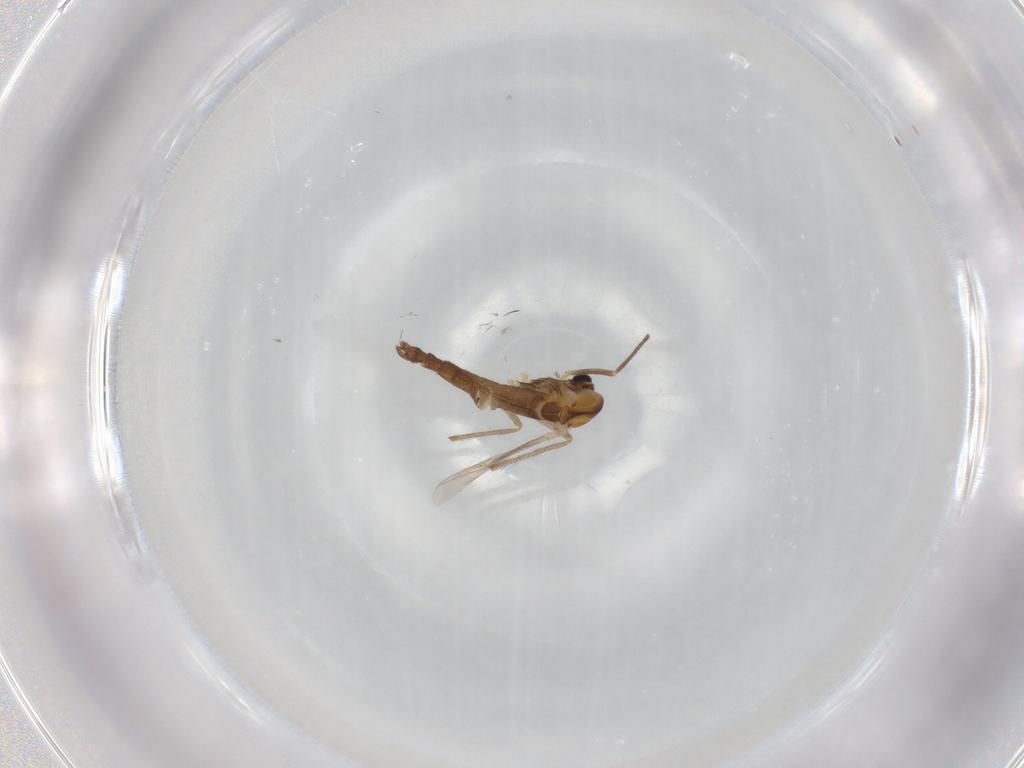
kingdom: Animalia
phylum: Arthropoda
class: Insecta
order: Diptera
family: Chironomidae
